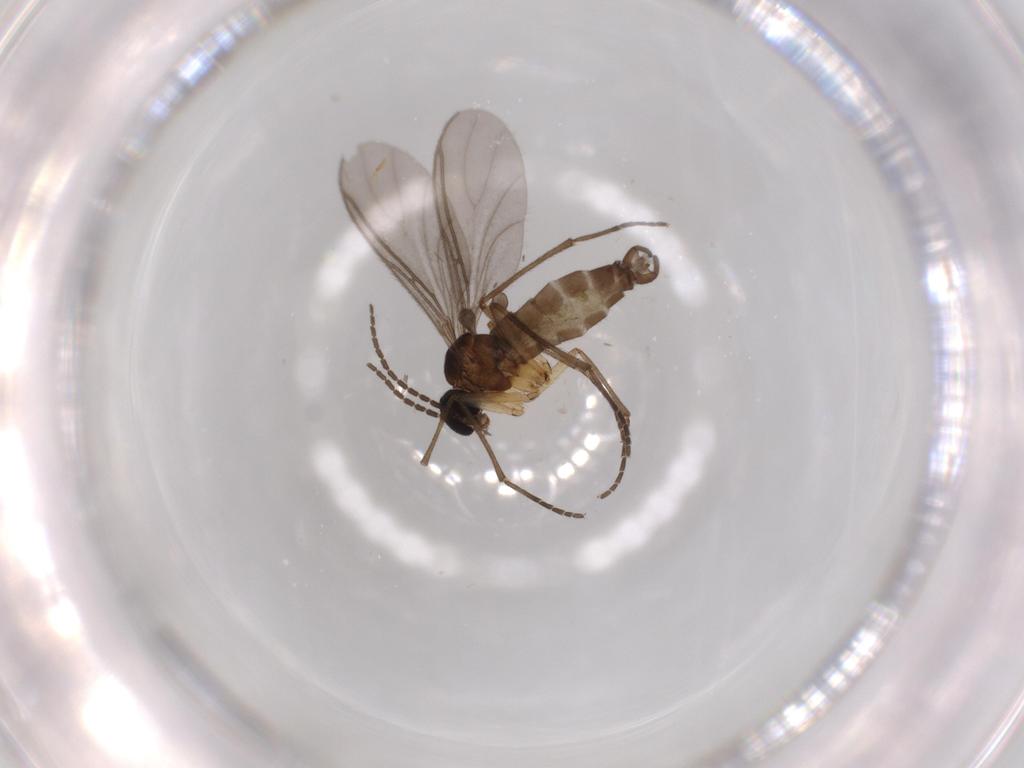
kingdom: Animalia
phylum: Arthropoda
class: Insecta
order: Diptera
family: Sciaridae
